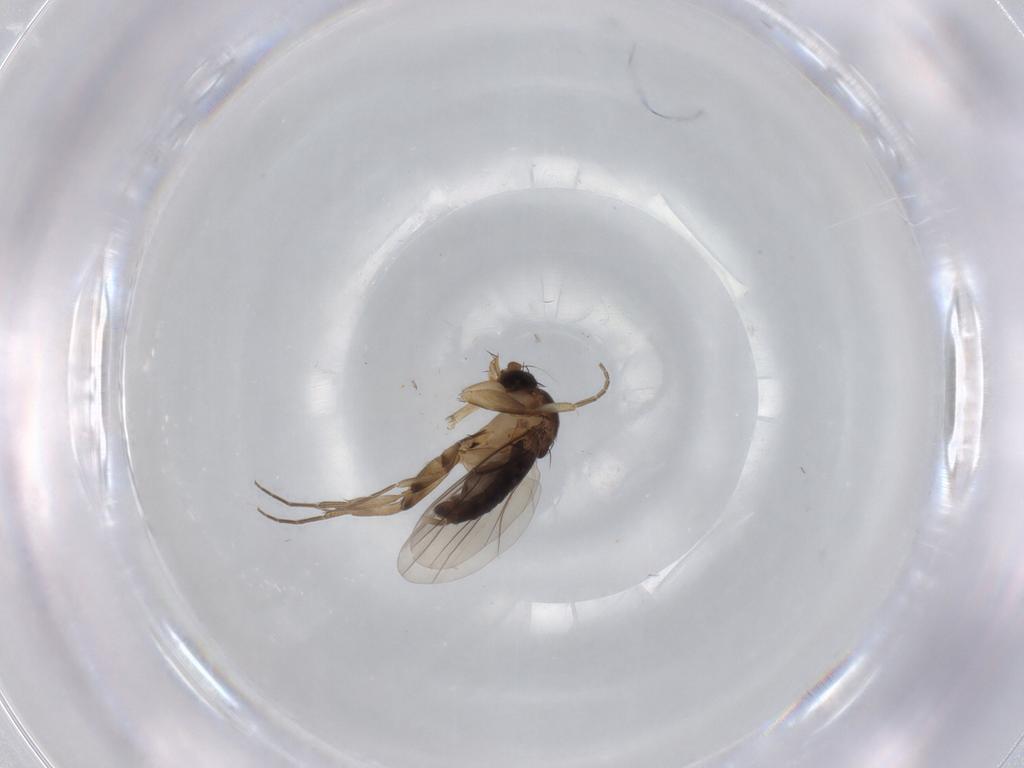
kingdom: Animalia
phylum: Arthropoda
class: Insecta
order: Diptera
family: Phoridae
